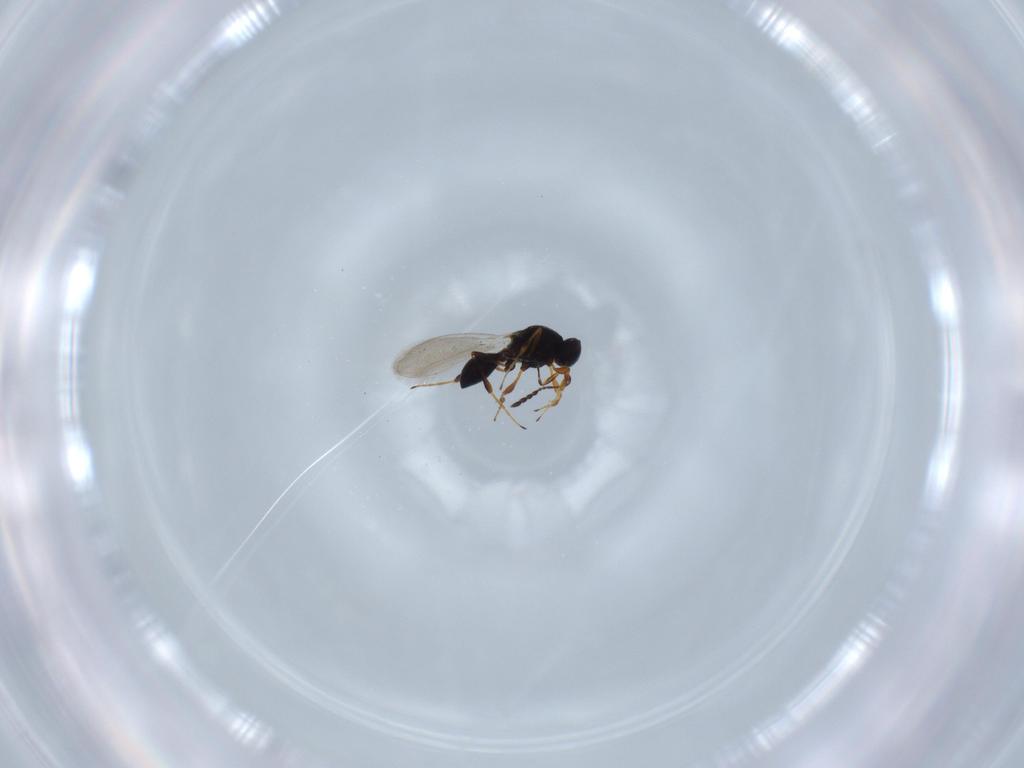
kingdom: Animalia
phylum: Arthropoda
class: Insecta
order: Hymenoptera
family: Platygastridae
